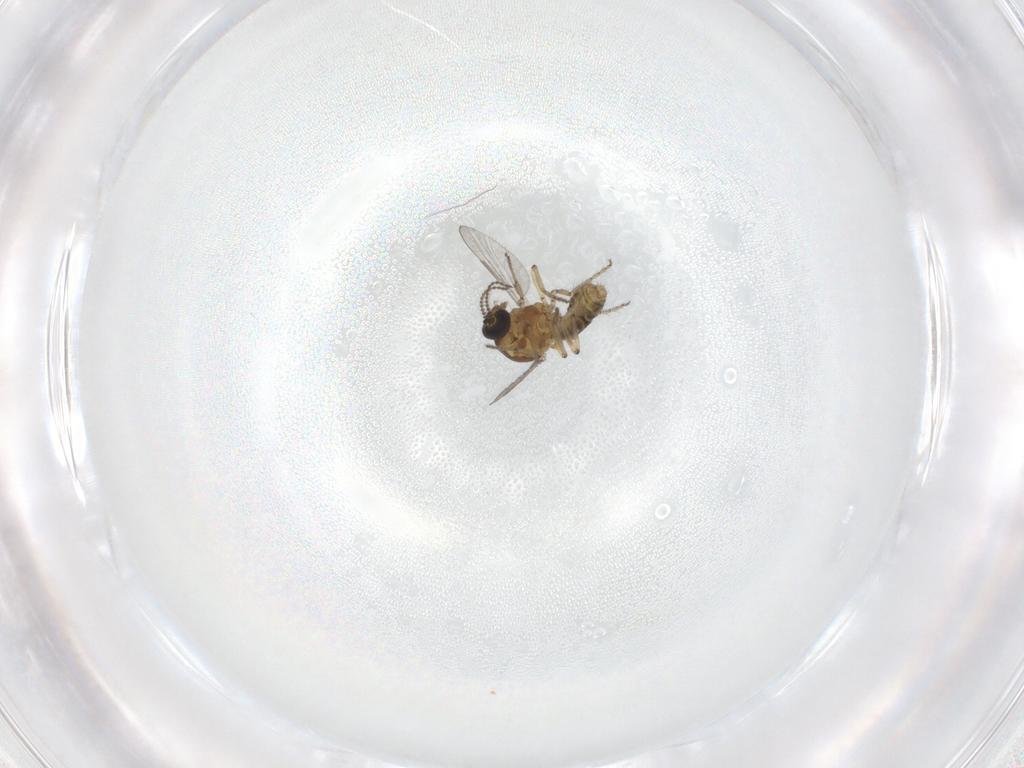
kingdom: Animalia
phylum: Arthropoda
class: Insecta
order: Diptera
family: Ceratopogonidae
